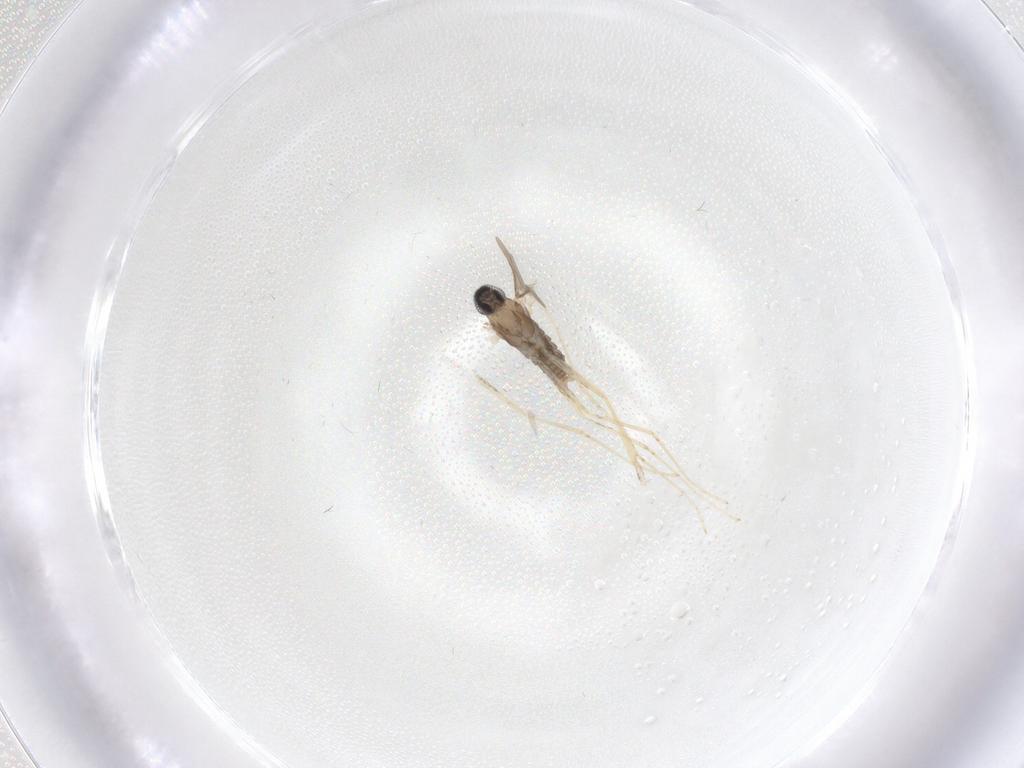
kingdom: Animalia
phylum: Arthropoda
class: Insecta
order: Diptera
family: Cecidomyiidae
